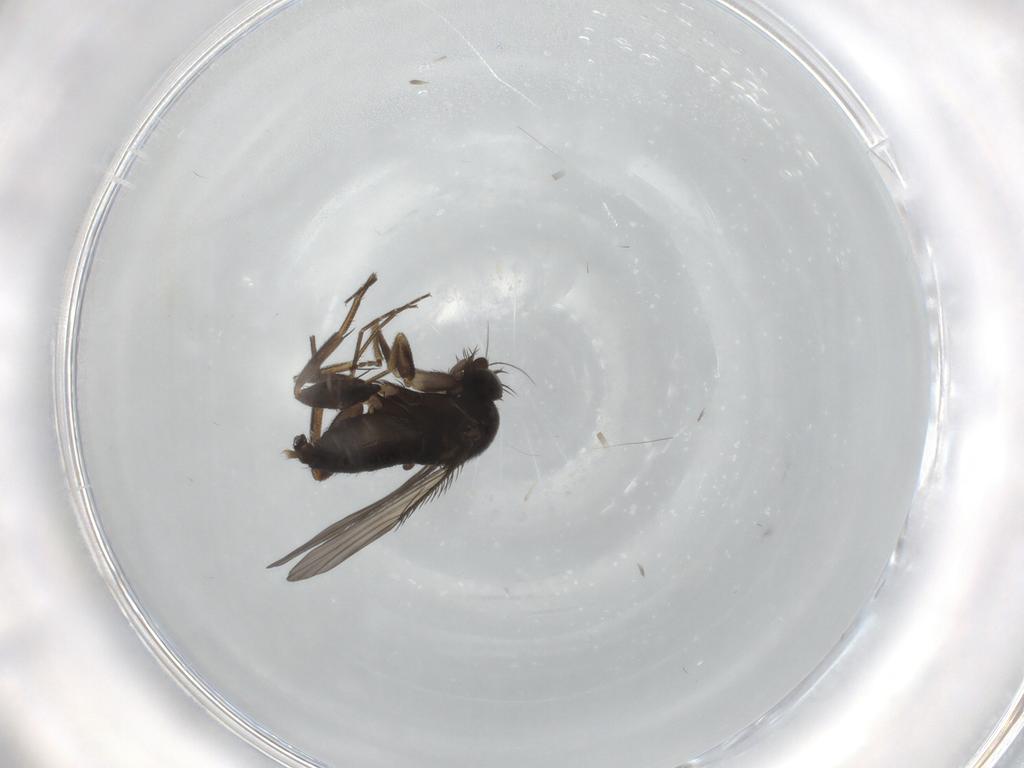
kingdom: Animalia
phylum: Arthropoda
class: Insecta
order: Diptera
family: Phoridae
